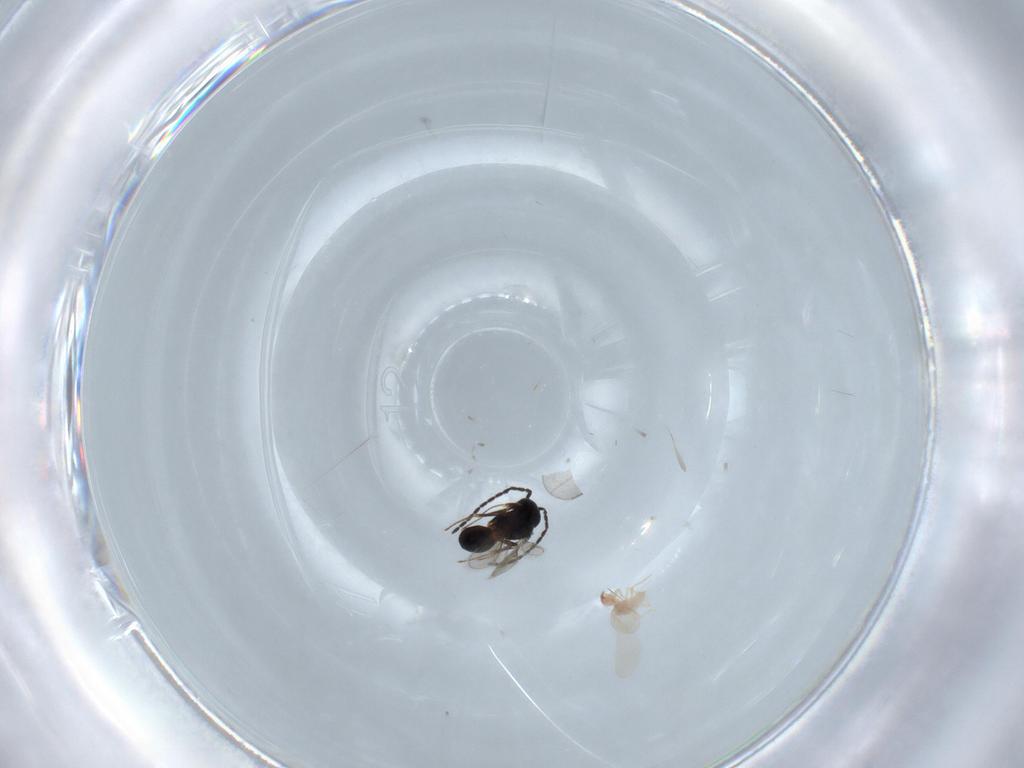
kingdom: Animalia
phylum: Arthropoda
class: Insecta
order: Hymenoptera
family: Scelionidae
